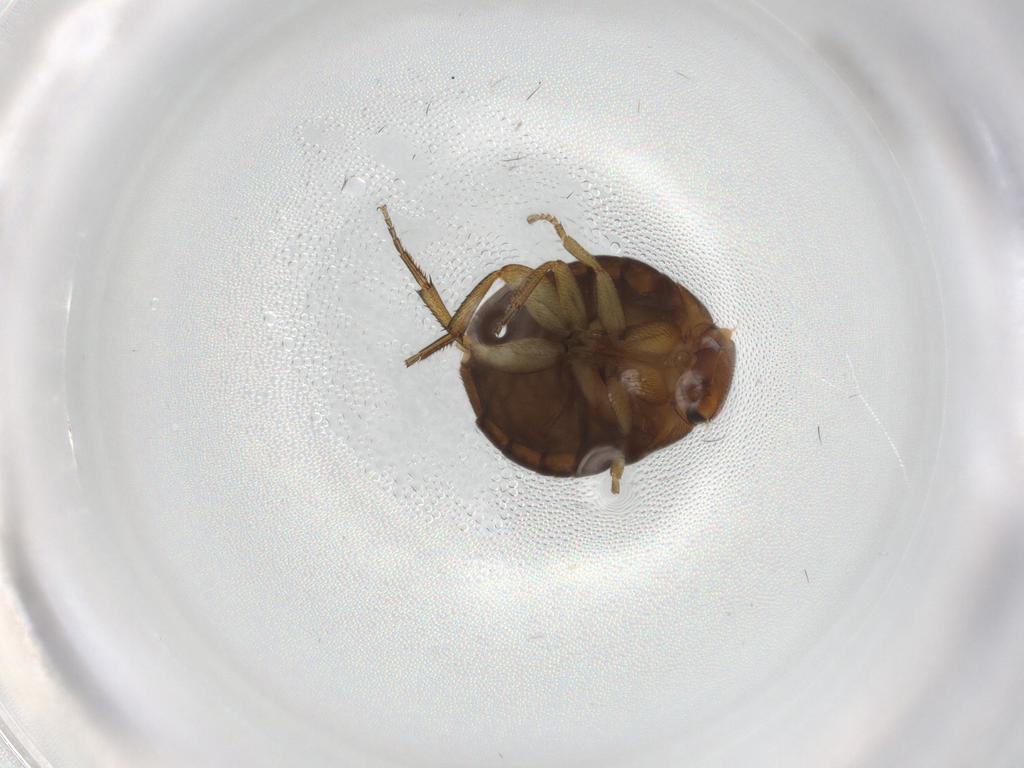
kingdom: Animalia
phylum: Arthropoda
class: Insecta
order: Diptera
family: Phoridae
